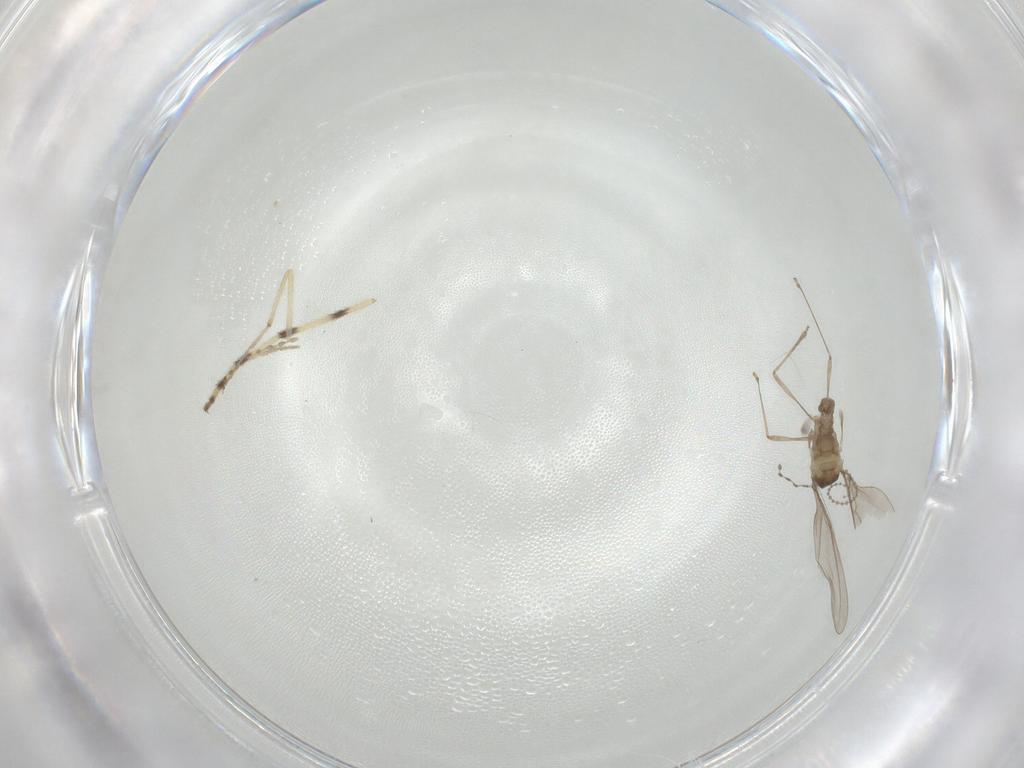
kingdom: Animalia
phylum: Arthropoda
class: Insecta
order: Diptera
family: Cecidomyiidae
